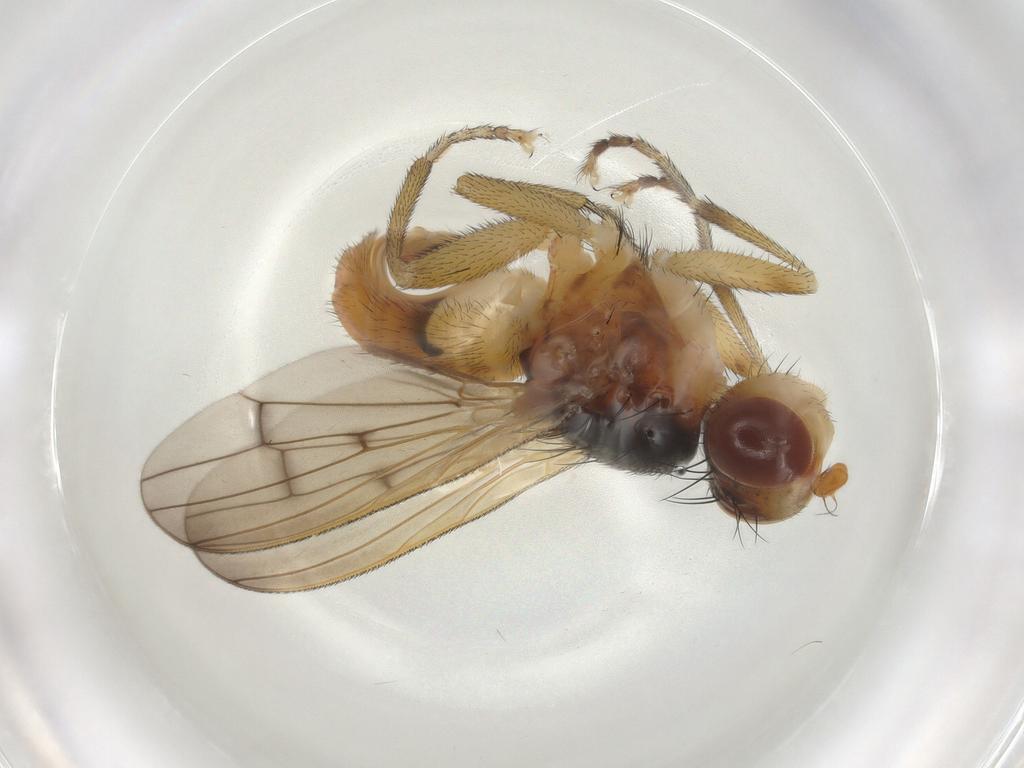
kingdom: Animalia
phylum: Arthropoda
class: Insecta
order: Diptera
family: Sciomyzidae
